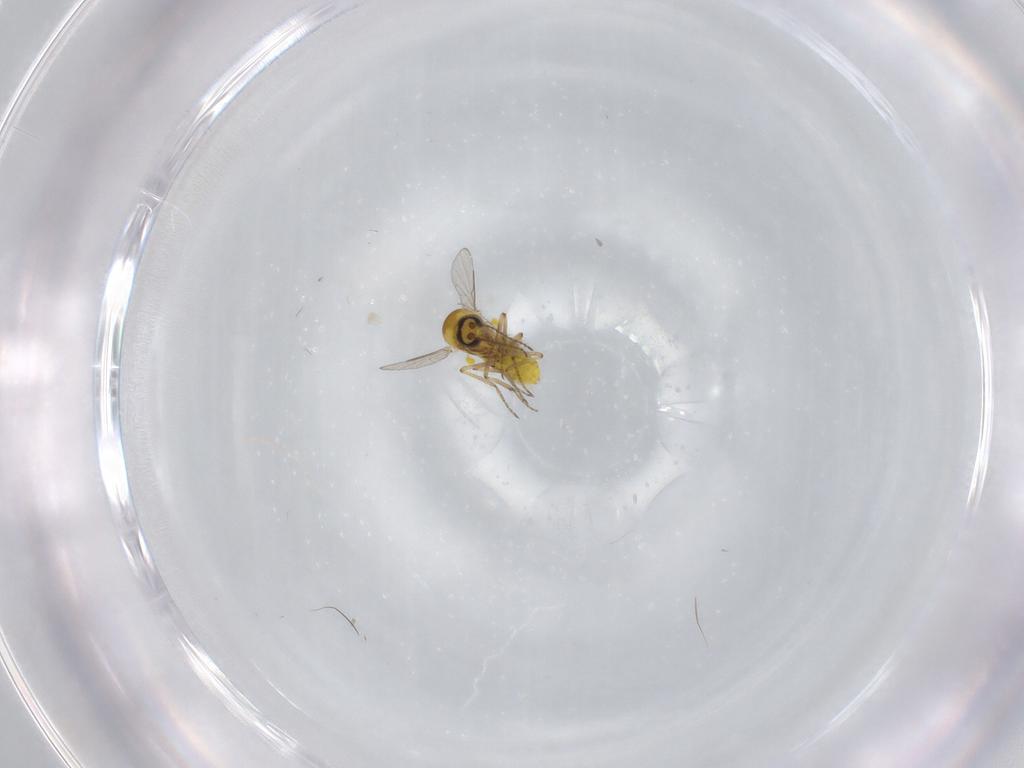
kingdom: Animalia
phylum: Arthropoda
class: Insecta
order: Diptera
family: Ceratopogonidae
